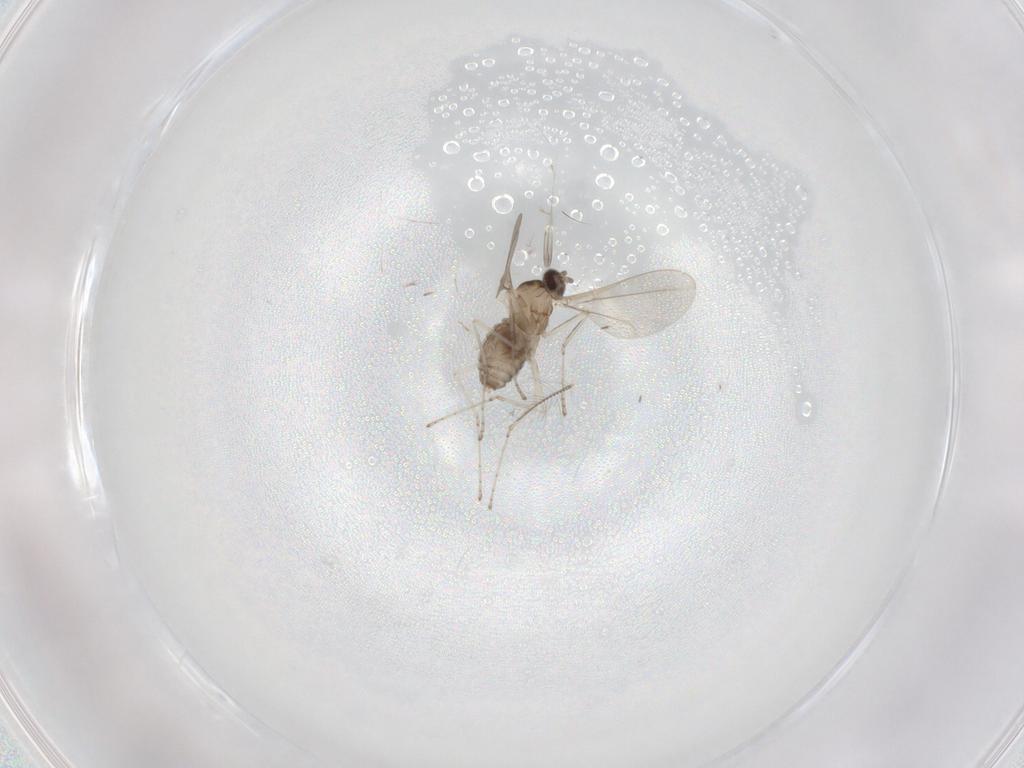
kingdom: Animalia
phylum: Arthropoda
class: Insecta
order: Diptera
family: Cecidomyiidae
